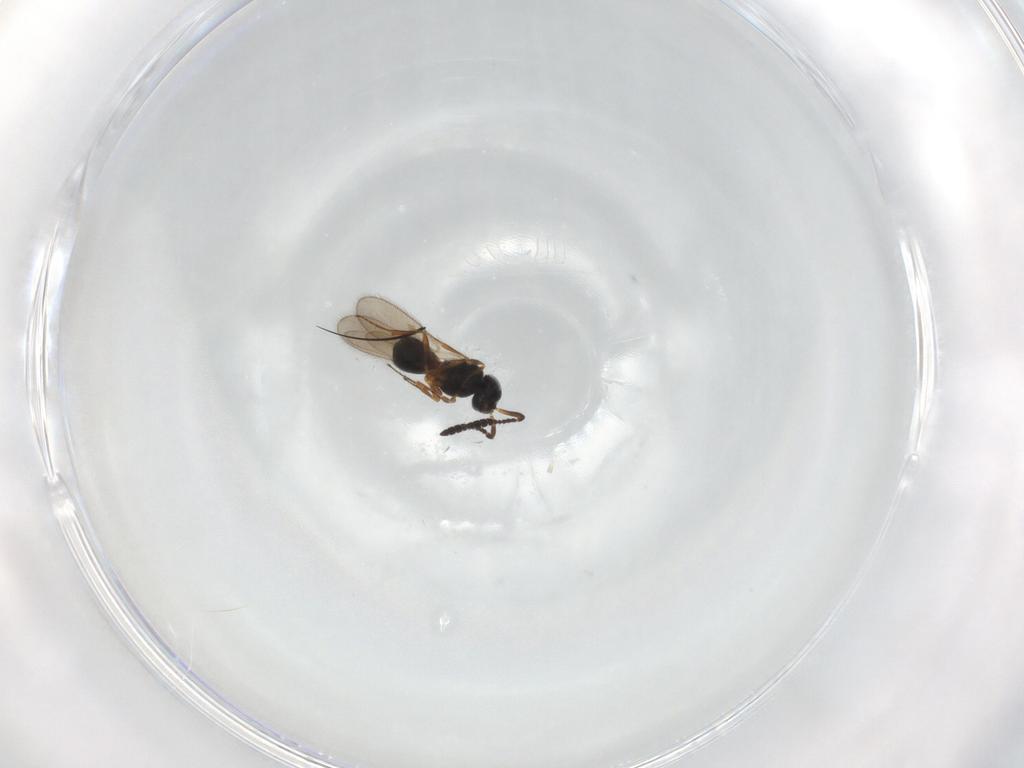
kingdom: Animalia
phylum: Arthropoda
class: Insecta
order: Hymenoptera
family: Scelionidae
